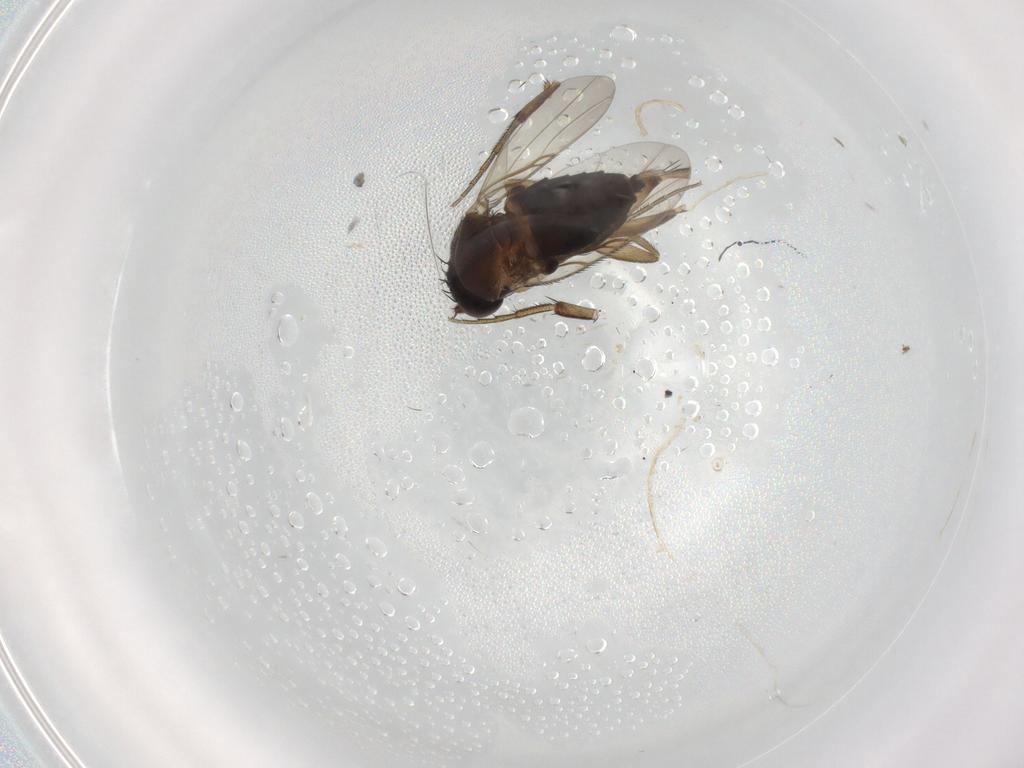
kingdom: Animalia
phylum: Arthropoda
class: Insecta
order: Diptera
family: Phoridae
